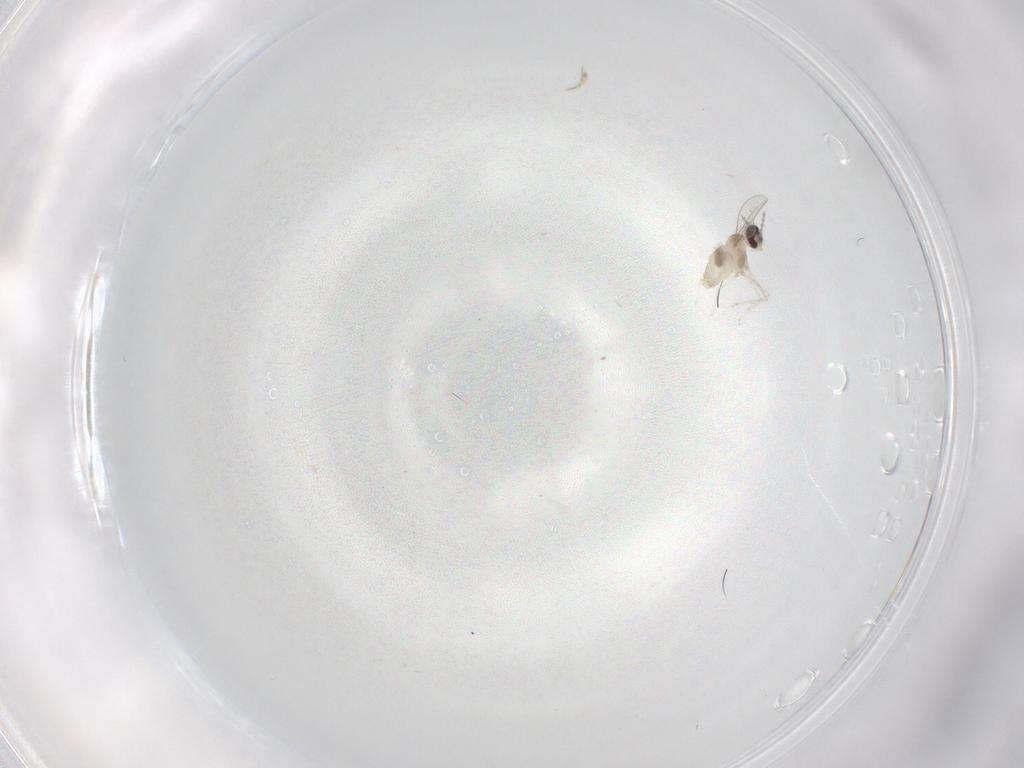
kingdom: Animalia
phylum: Arthropoda
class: Insecta
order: Diptera
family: Cecidomyiidae
